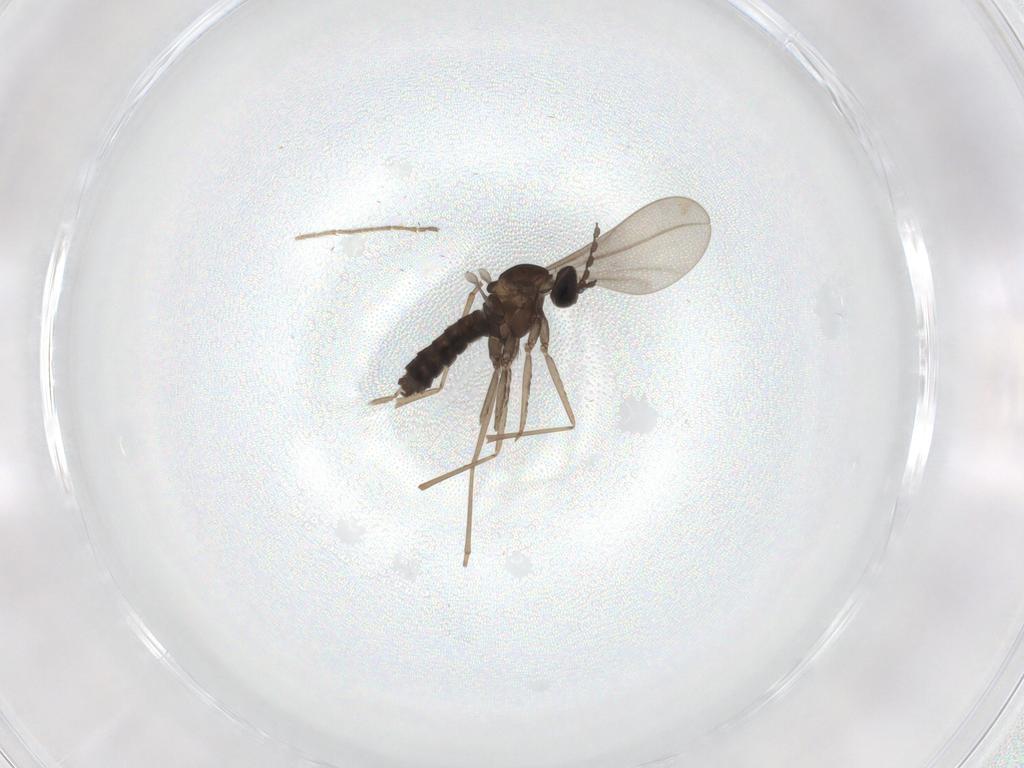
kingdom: Animalia
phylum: Arthropoda
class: Insecta
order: Diptera
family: Cecidomyiidae
